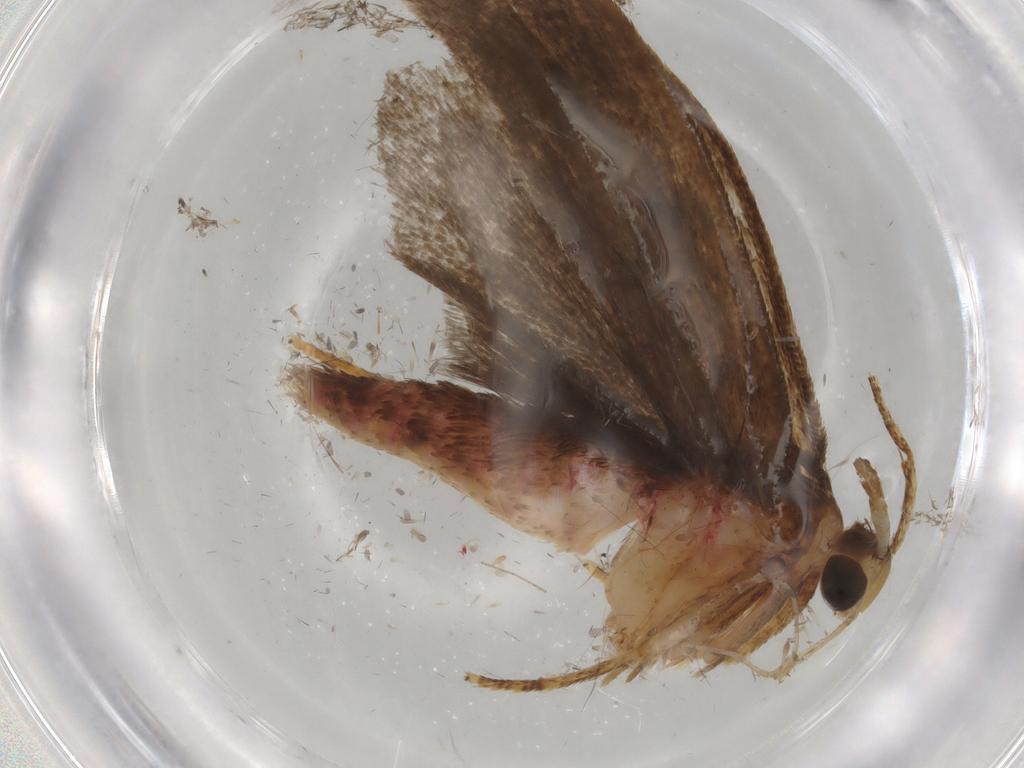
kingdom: Animalia
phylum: Arthropoda
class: Insecta
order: Lepidoptera
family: Autostichidae
